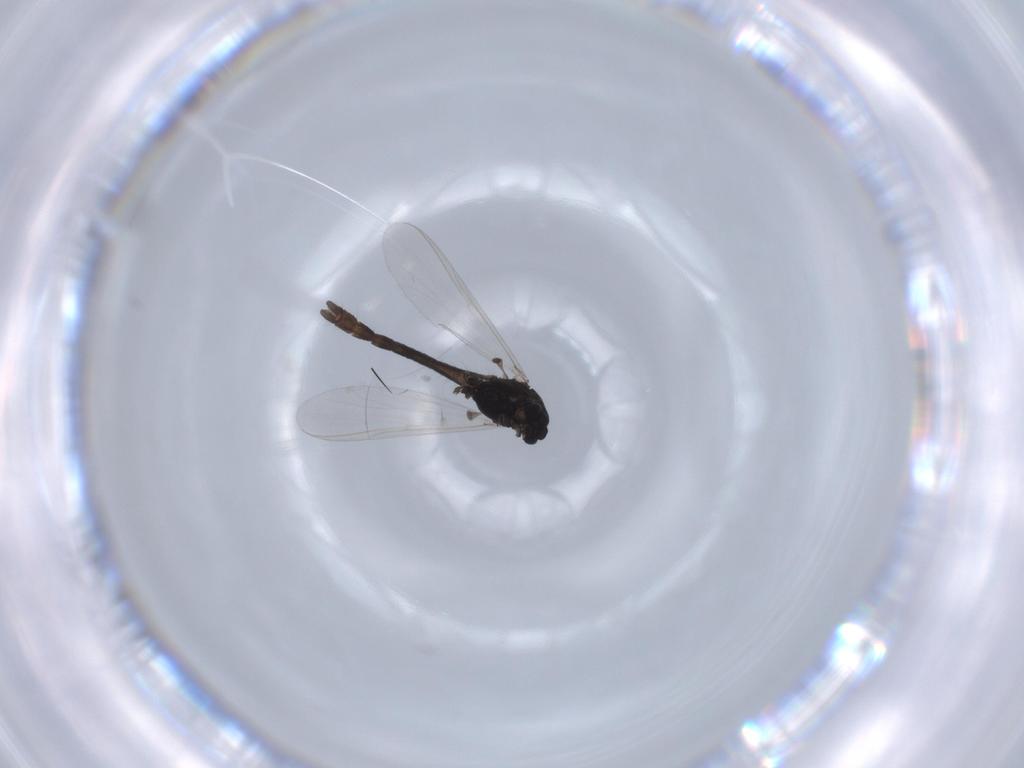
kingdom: Animalia
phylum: Arthropoda
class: Insecta
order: Diptera
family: Chironomidae
